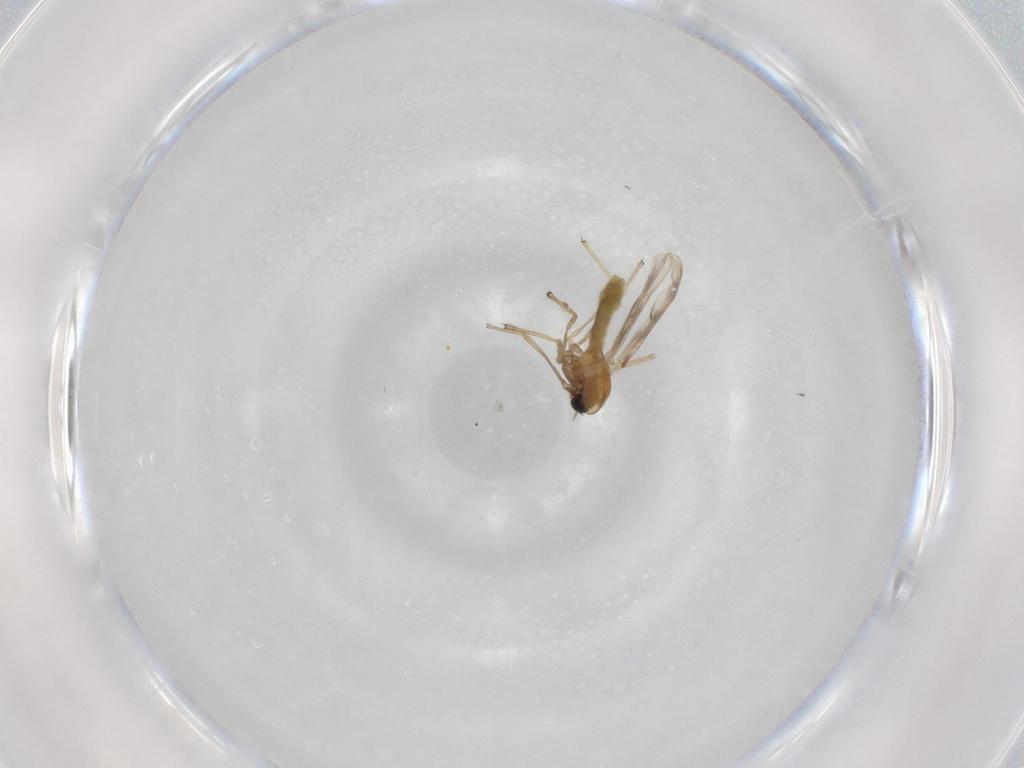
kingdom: Animalia
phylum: Arthropoda
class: Insecta
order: Diptera
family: Chironomidae
